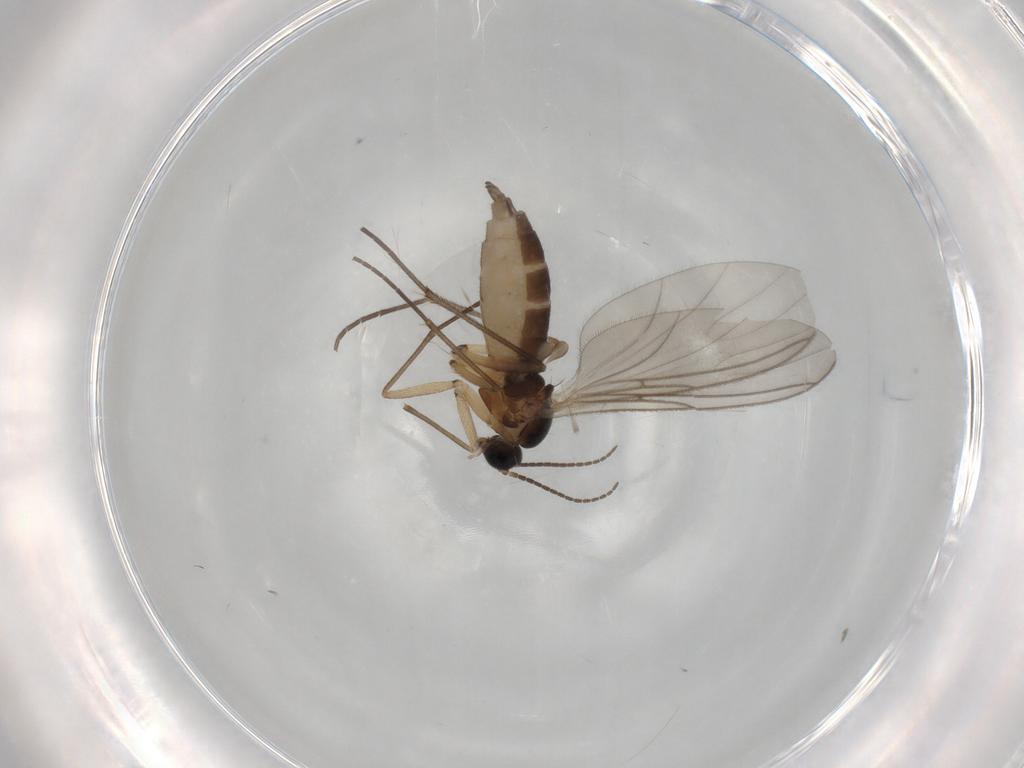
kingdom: Animalia
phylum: Arthropoda
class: Insecta
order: Diptera
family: Sciaridae
